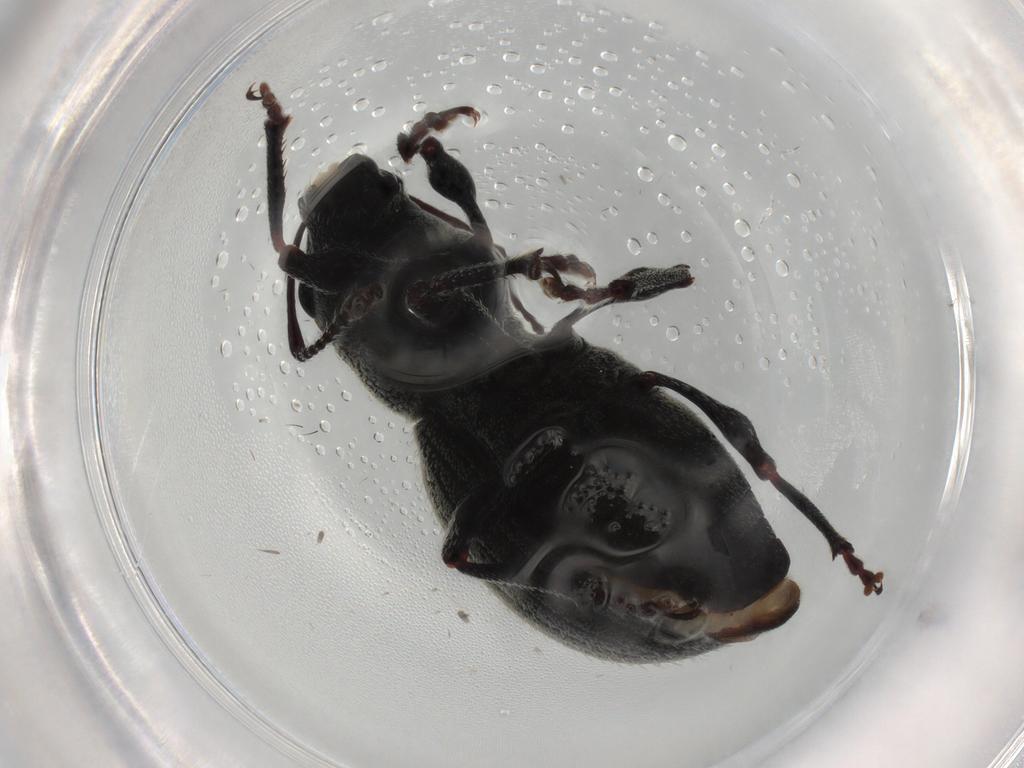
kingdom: Animalia
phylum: Arthropoda
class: Insecta
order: Coleoptera
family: Curculionidae
